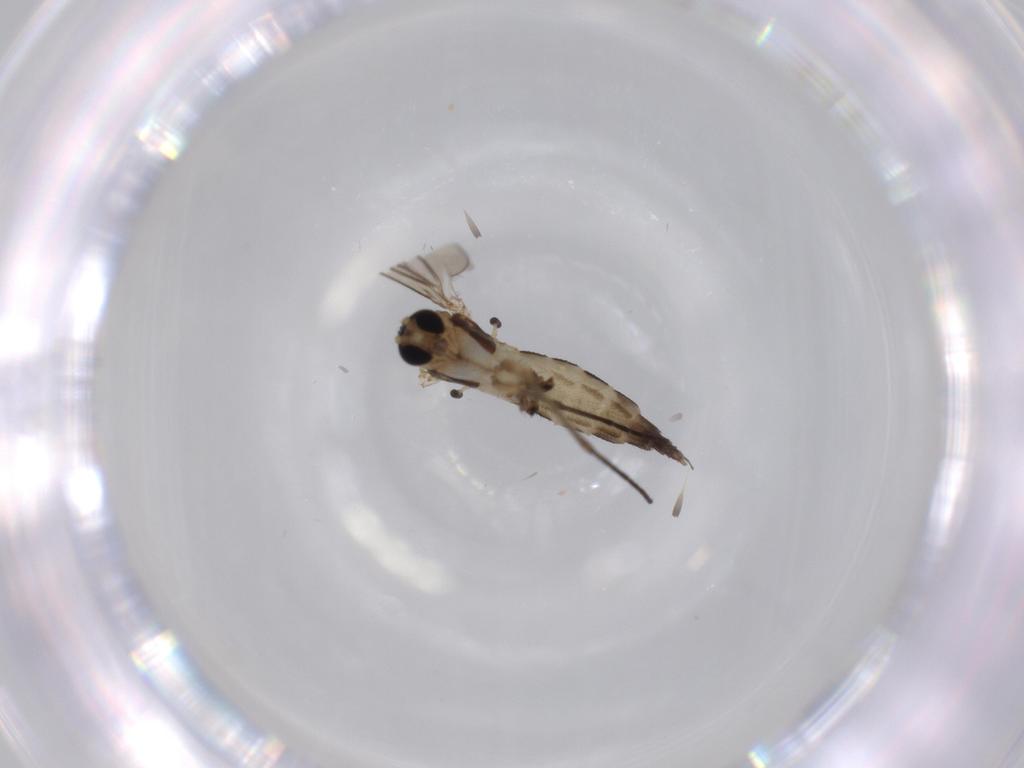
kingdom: Animalia
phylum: Arthropoda
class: Insecta
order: Diptera
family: Sciaridae
